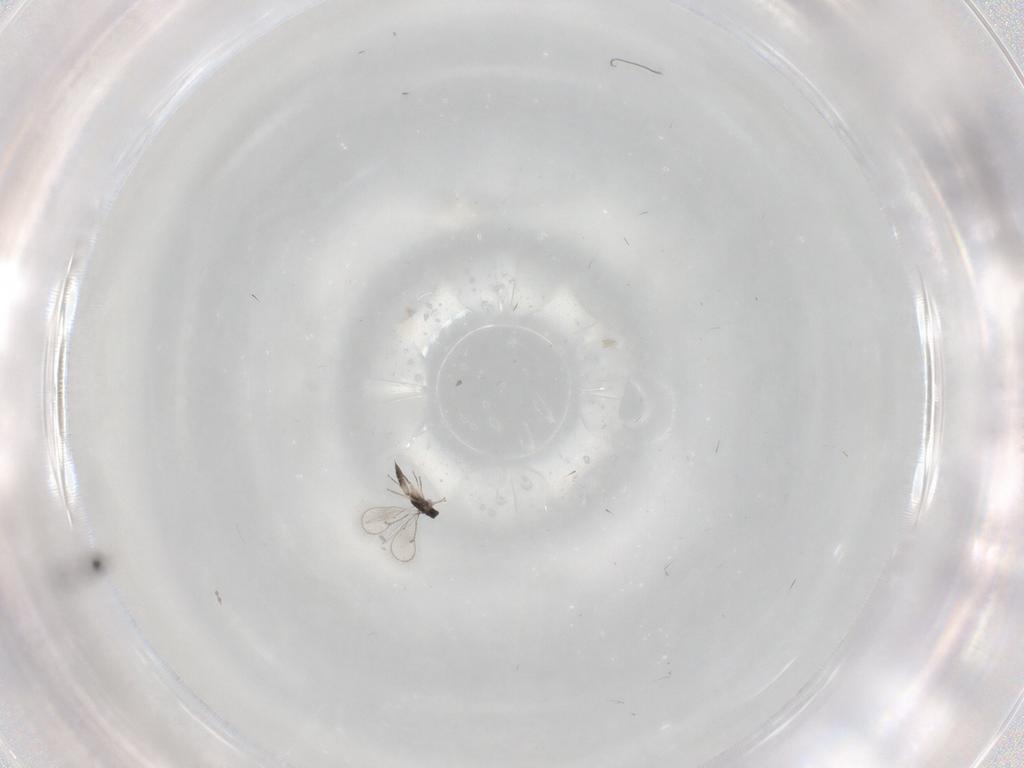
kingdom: Animalia
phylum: Arthropoda
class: Insecta
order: Hymenoptera
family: Eulophidae
